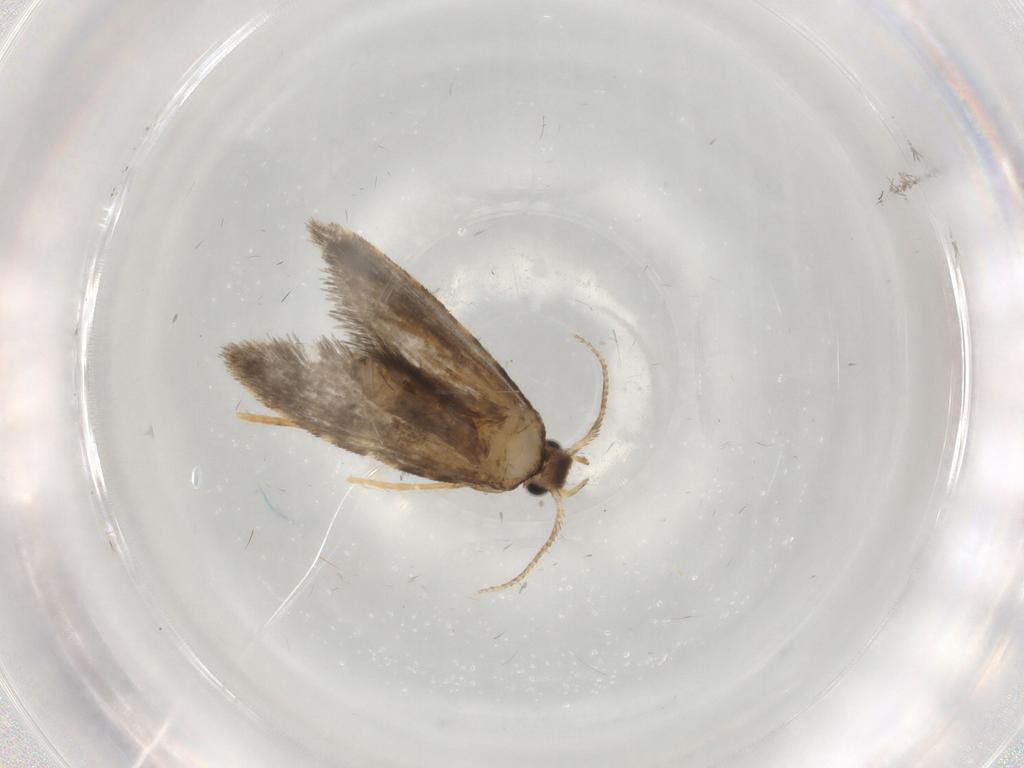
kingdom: Animalia
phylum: Arthropoda
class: Insecta
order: Lepidoptera
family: Psychidae
